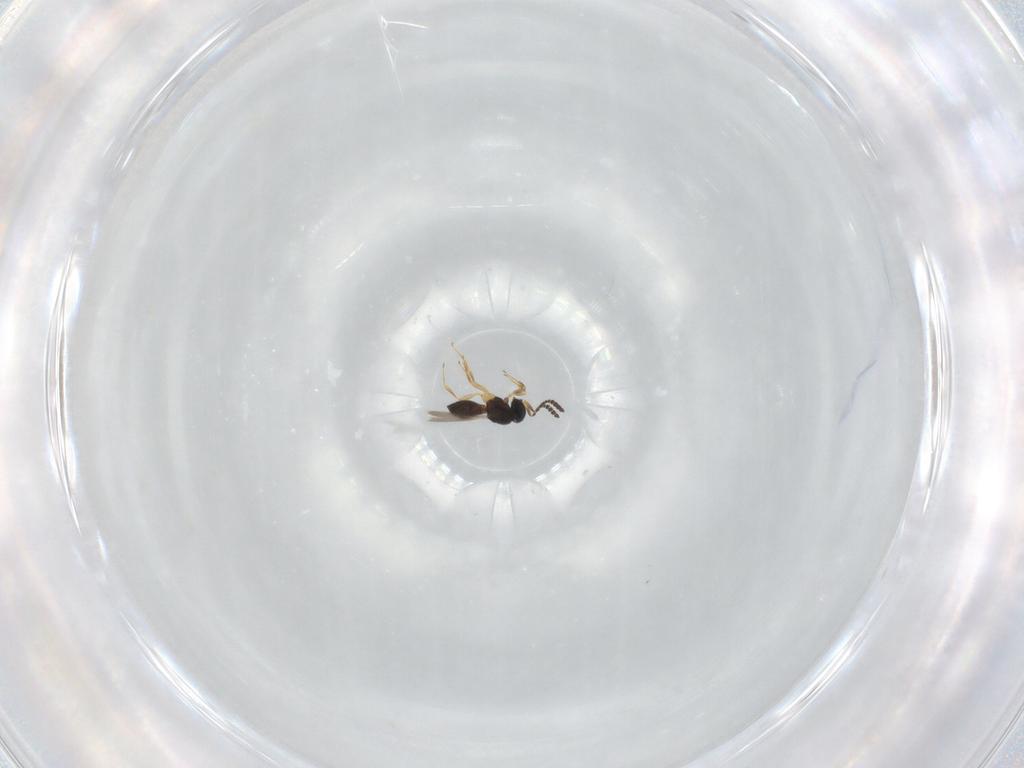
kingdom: Animalia
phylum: Arthropoda
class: Insecta
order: Hymenoptera
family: Scelionidae
